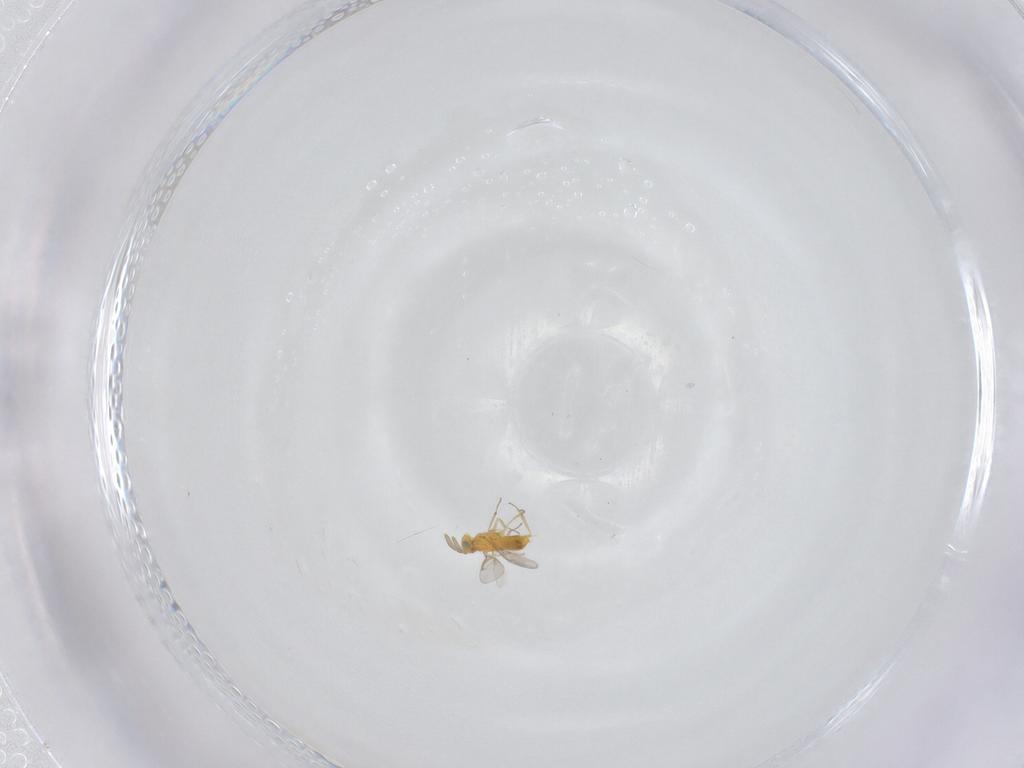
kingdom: Animalia
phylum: Arthropoda
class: Insecta
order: Hymenoptera
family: Aphelinidae
